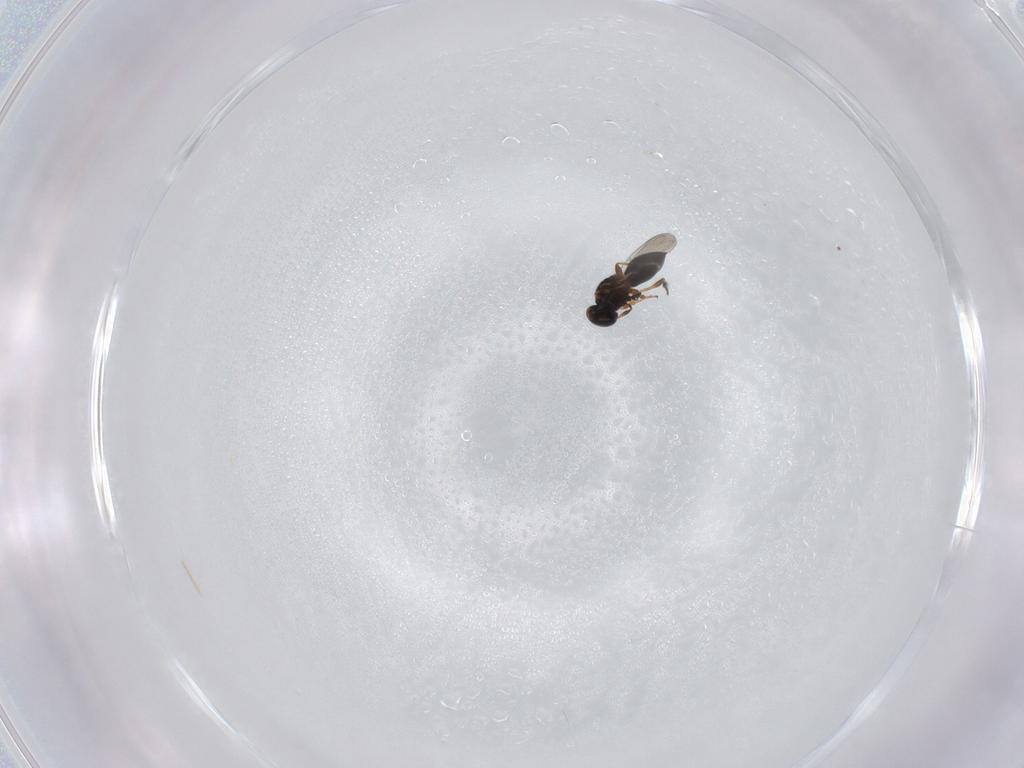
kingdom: Animalia
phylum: Arthropoda
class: Insecta
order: Hymenoptera
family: Platygastridae
